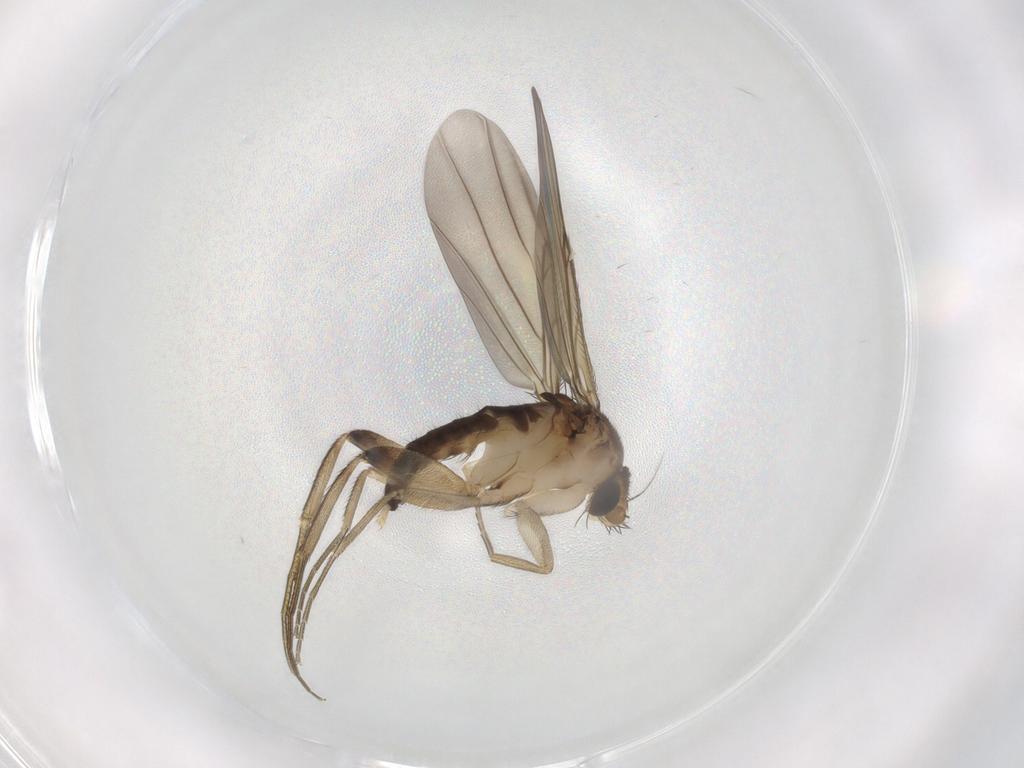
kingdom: Animalia
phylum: Arthropoda
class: Insecta
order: Diptera
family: Phoridae
